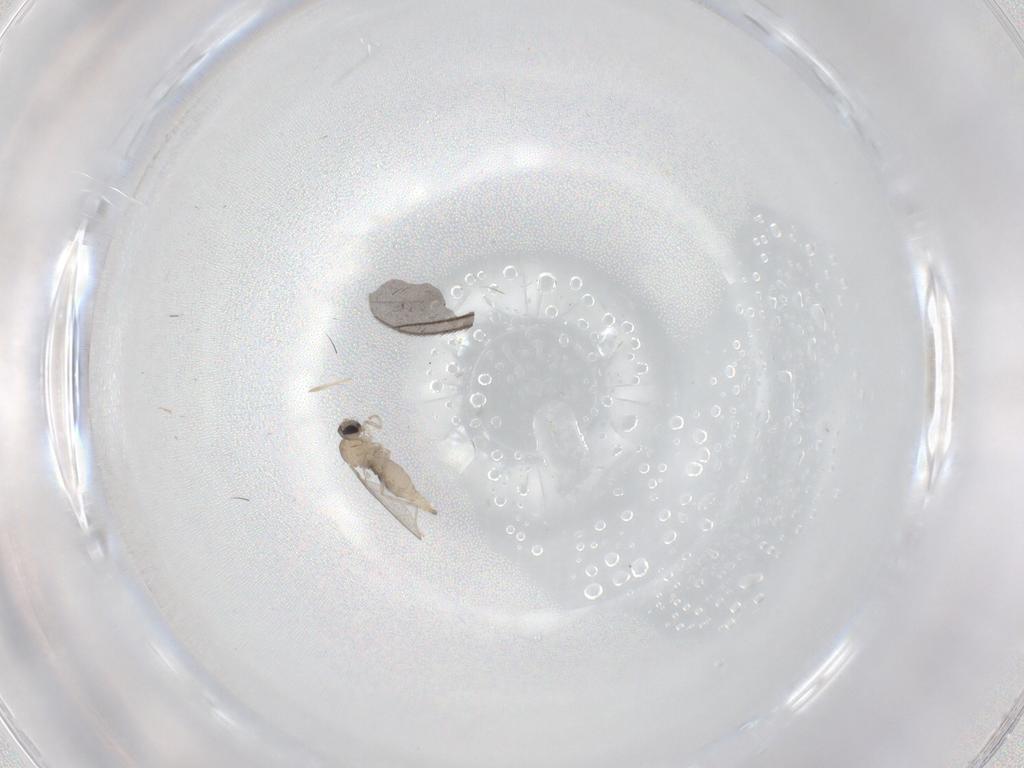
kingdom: Animalia
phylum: Arthropoda
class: Insecta
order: Diptera
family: Cecidomyiidae
